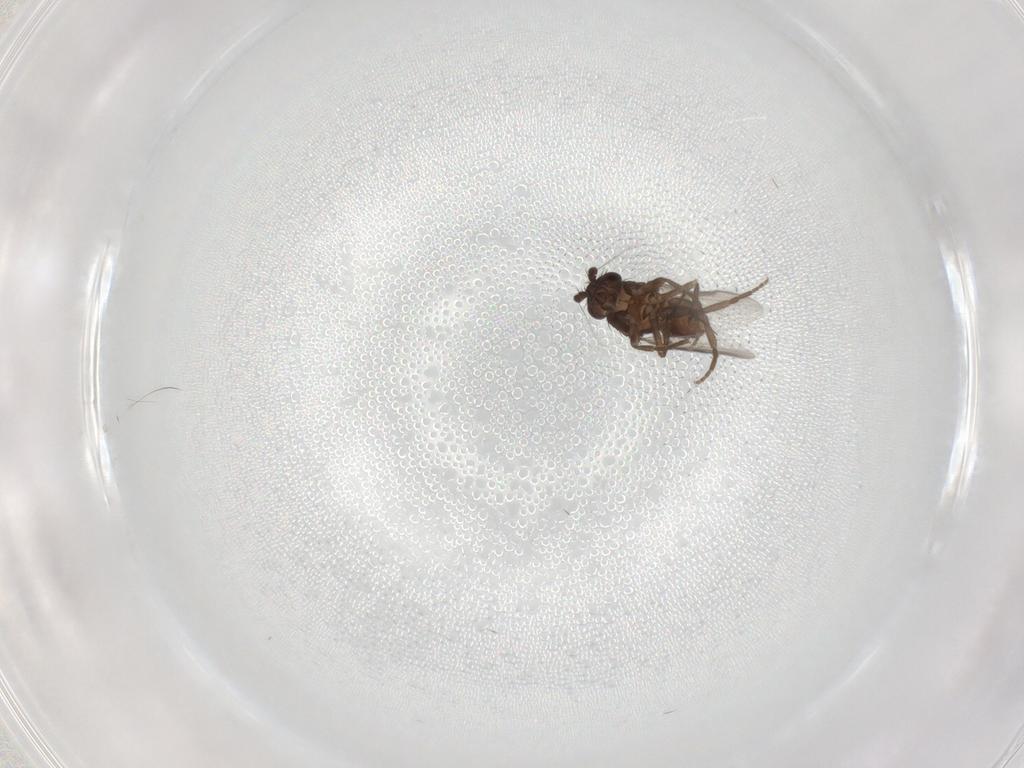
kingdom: Animalia
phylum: Arthropoda
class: Insecta
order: Diptera
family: Sphaeroceridae
